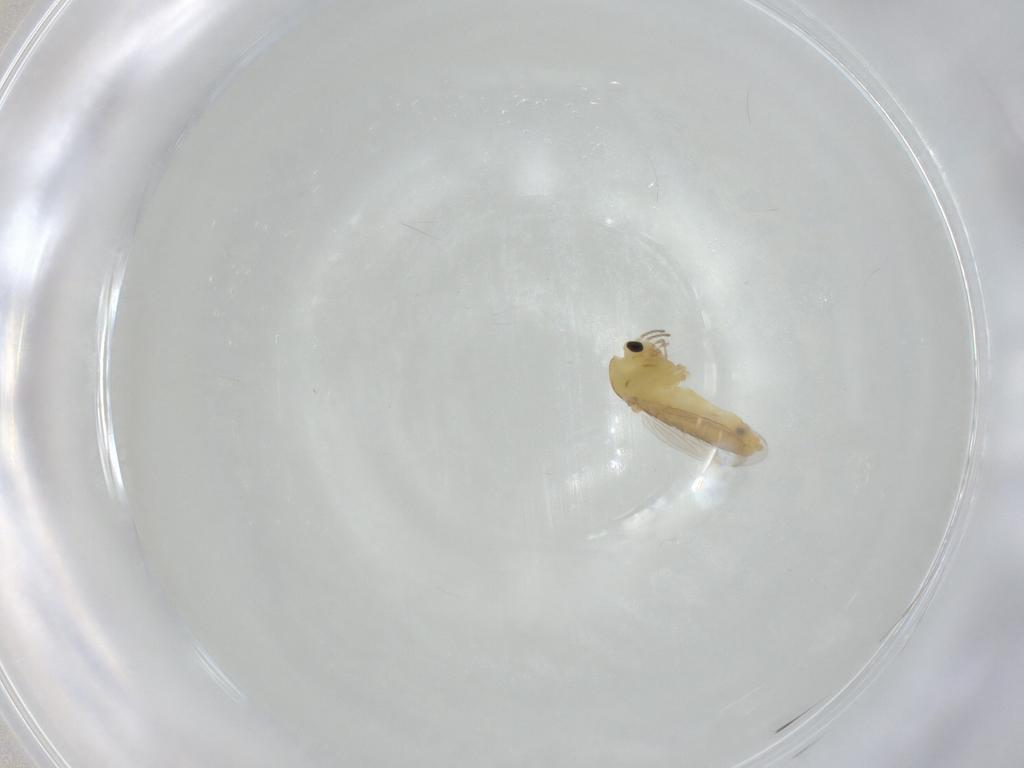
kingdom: Animalia
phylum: Arthropoda
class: Insecta
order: Diptera
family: Chironomidae
